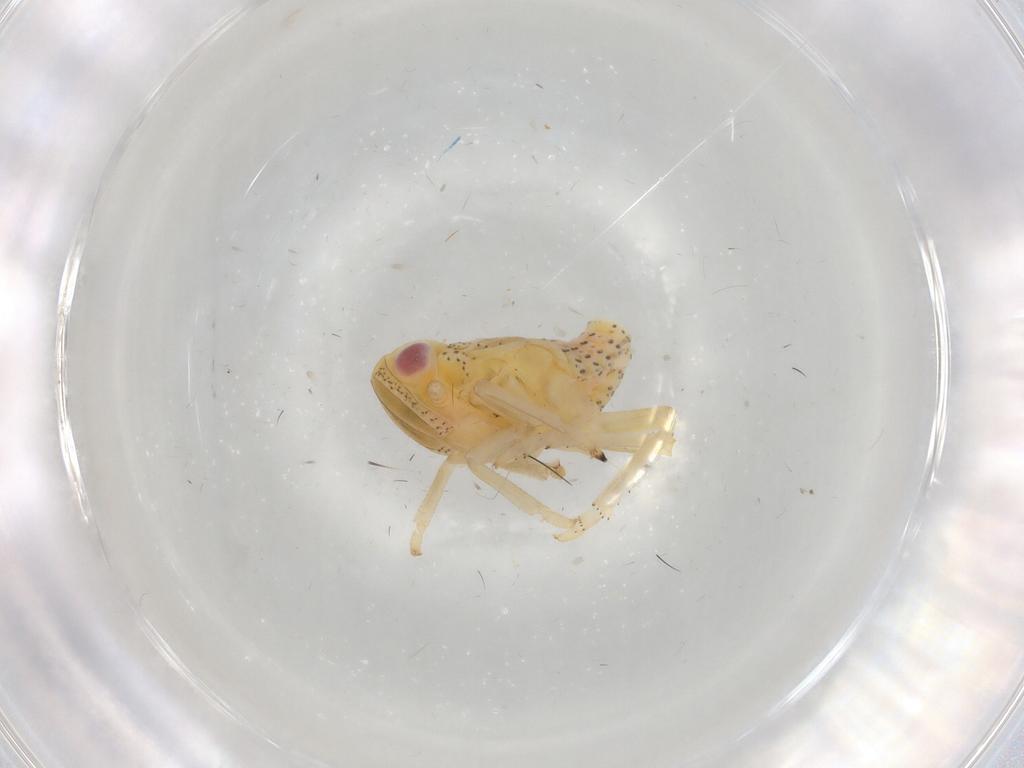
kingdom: Animalia
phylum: Arthropoda
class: Insecta
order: Hemiptera
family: Tropiduchidae
